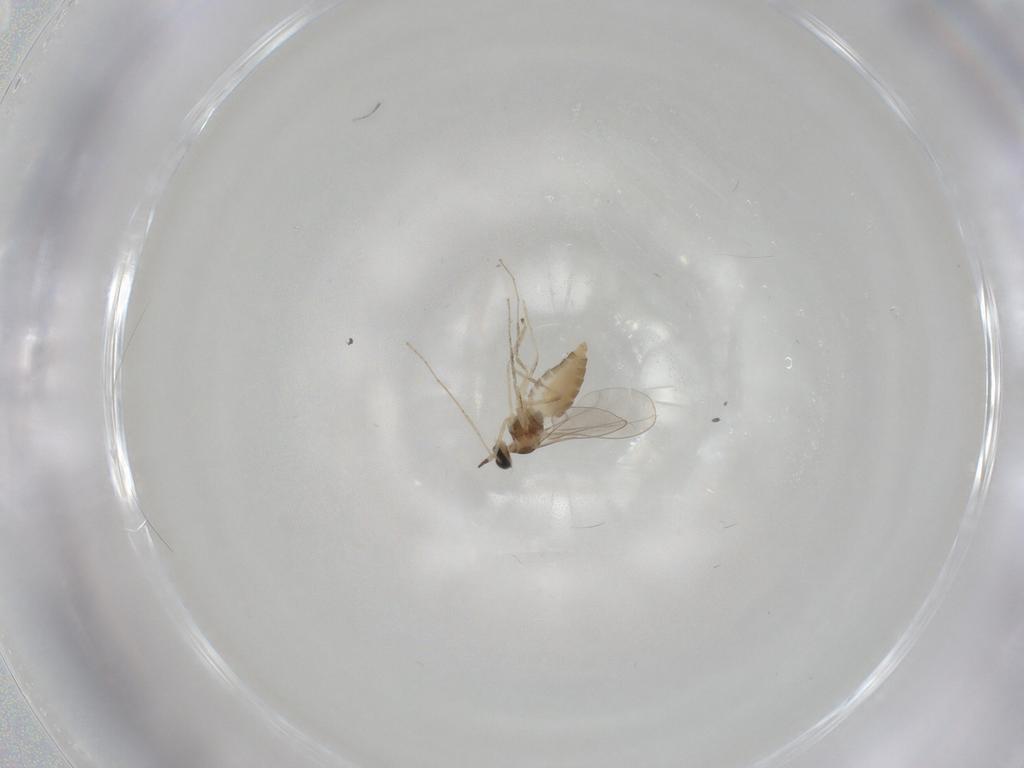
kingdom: Animalia
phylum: Arthropoda
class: Insecta
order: Diptera
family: Cecidomyiidae
